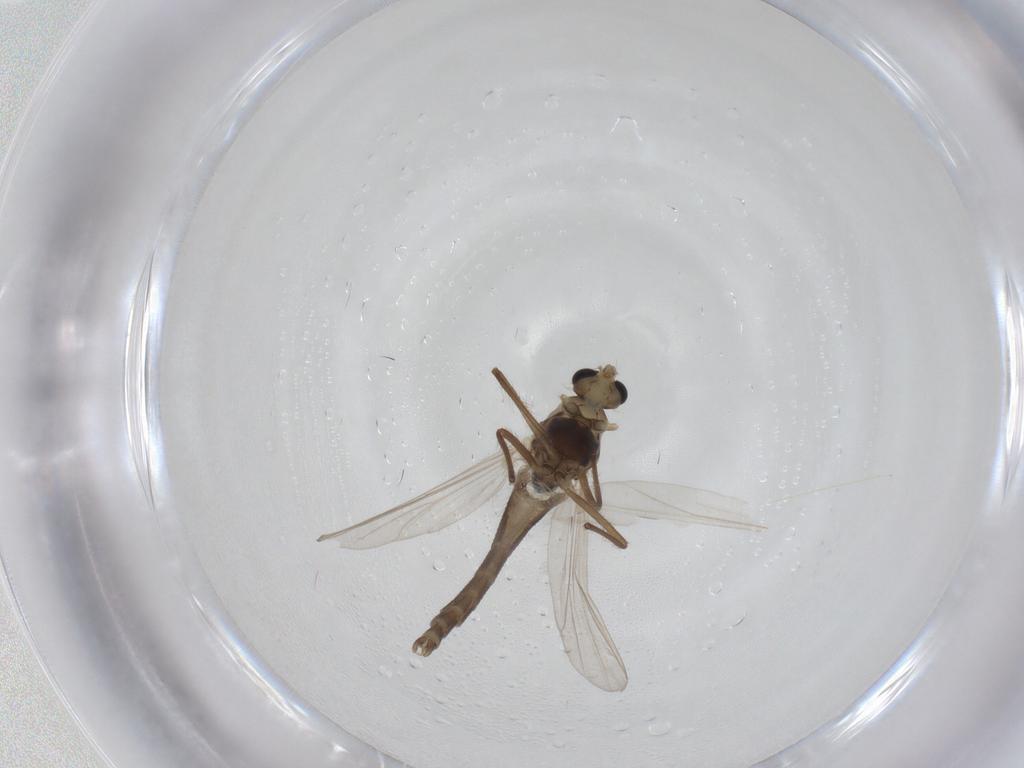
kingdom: Animalia
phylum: Arthropoda
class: Insecta
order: Diptera
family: Chironomidae
